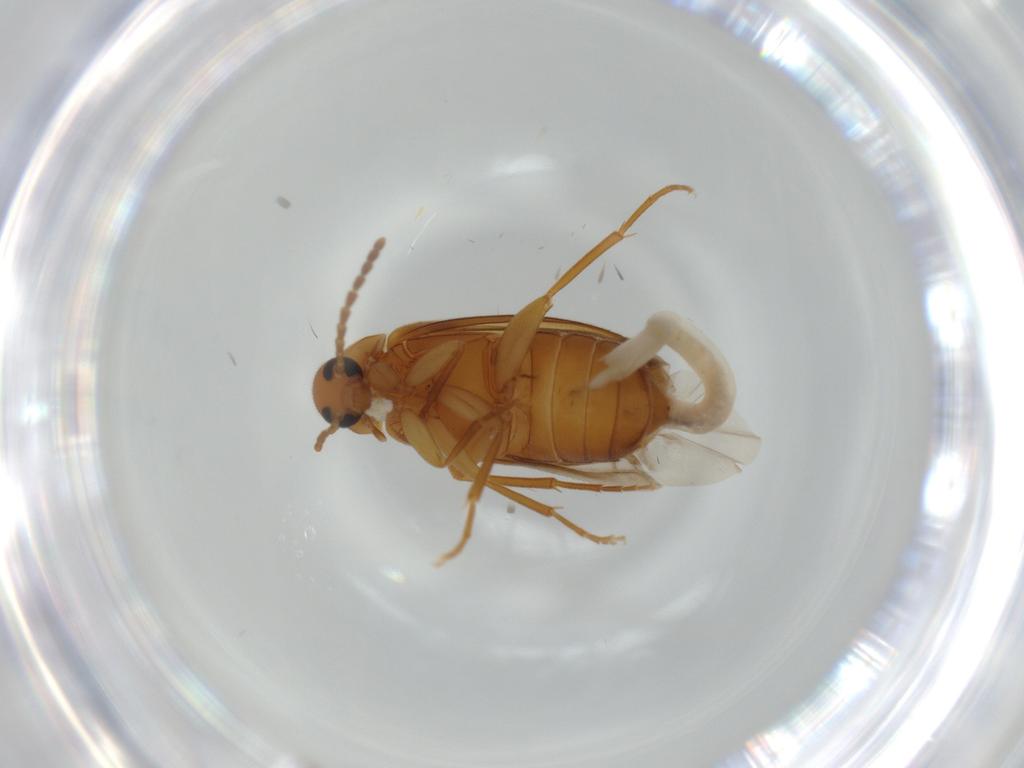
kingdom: Animalia
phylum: Arthropoda
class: Insecta
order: Coleoptera
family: Scraptiidae
